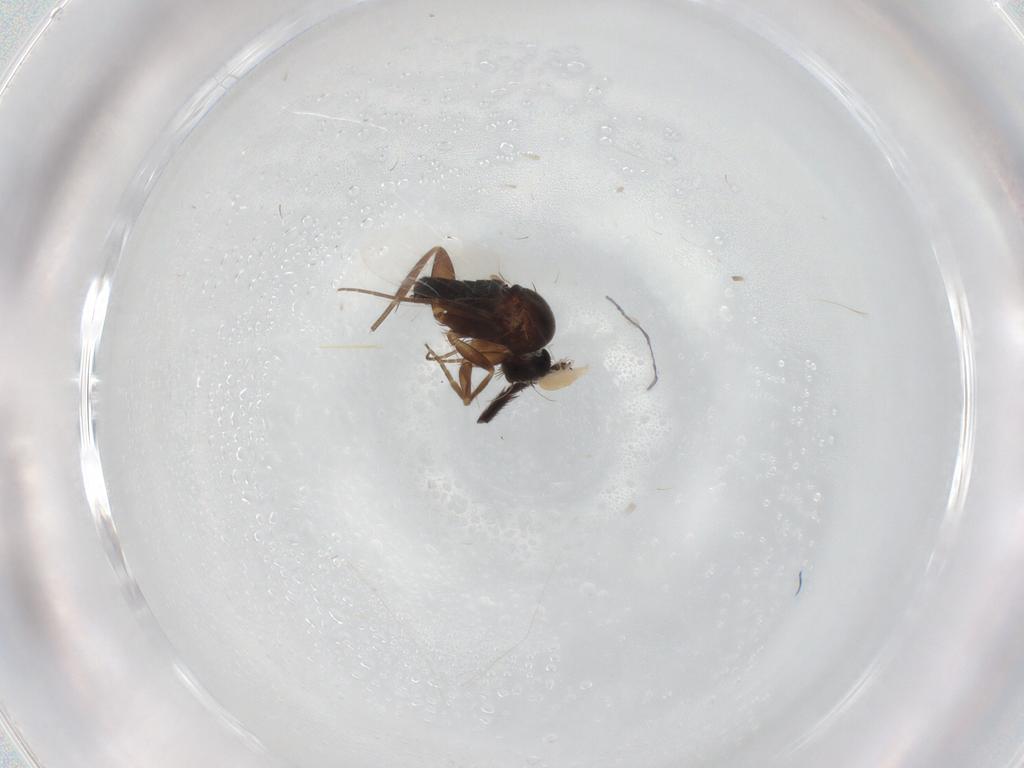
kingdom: Animalia
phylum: Arthropoda
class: Insecta
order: Diptera
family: Phoridae
